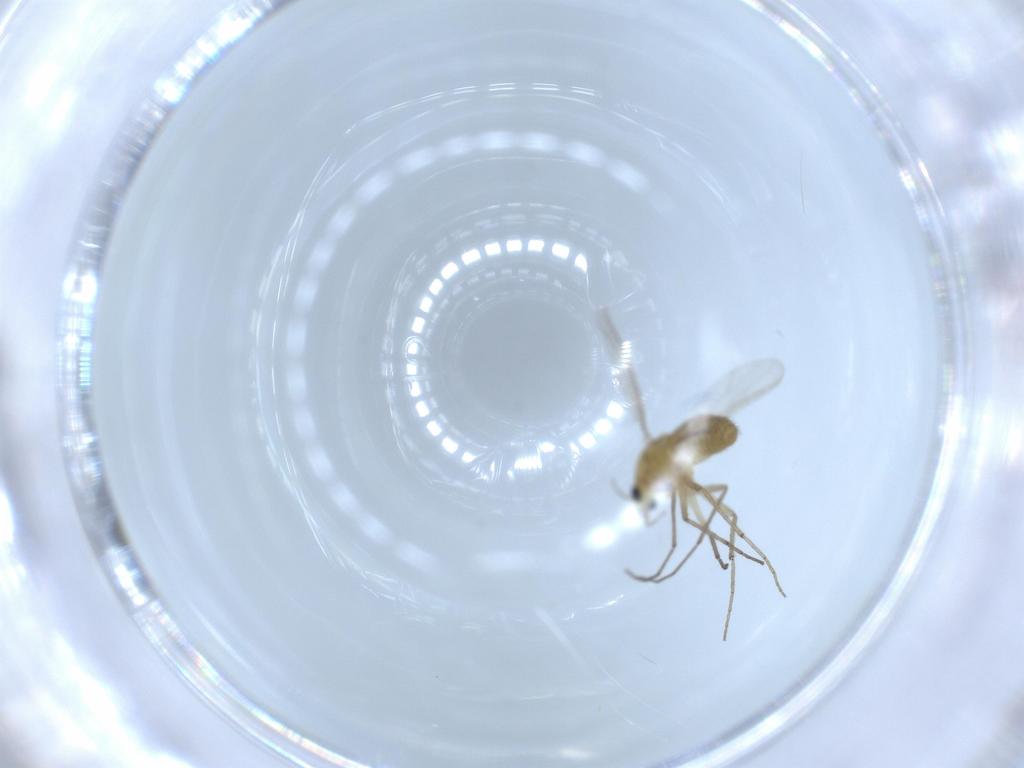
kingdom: Animalia
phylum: Arthropoda
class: Insecta
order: Diptera
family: Chironomidae
